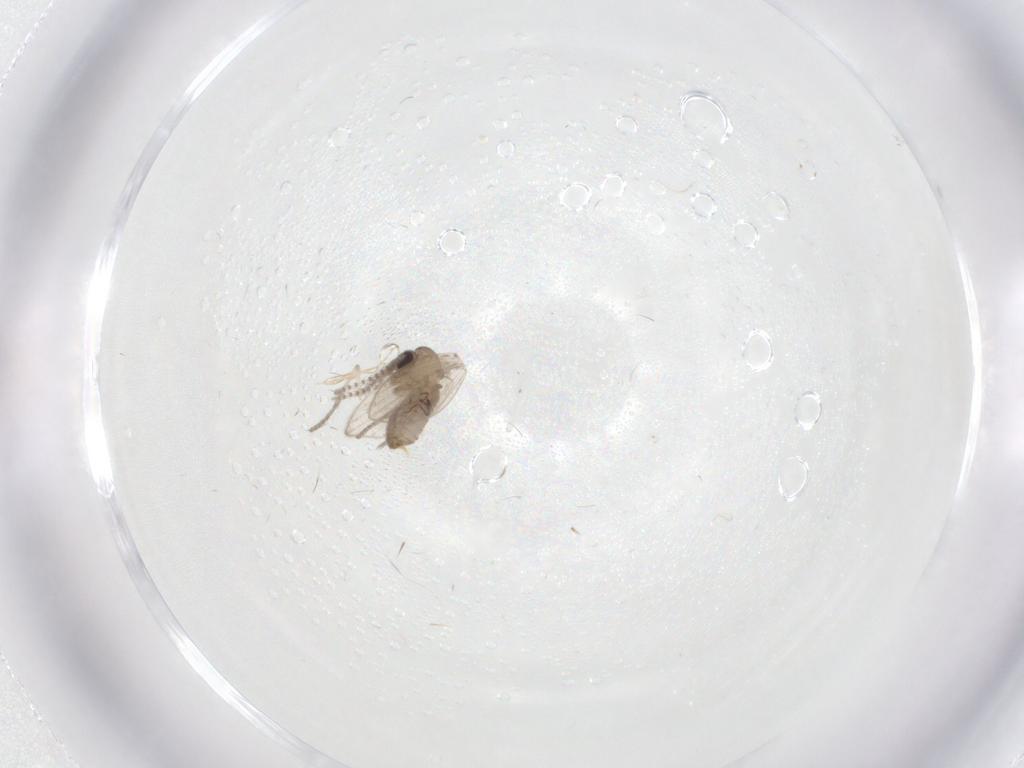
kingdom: Animalia
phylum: Arthropoda
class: Insecta
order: Diptera
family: Psychodidae
